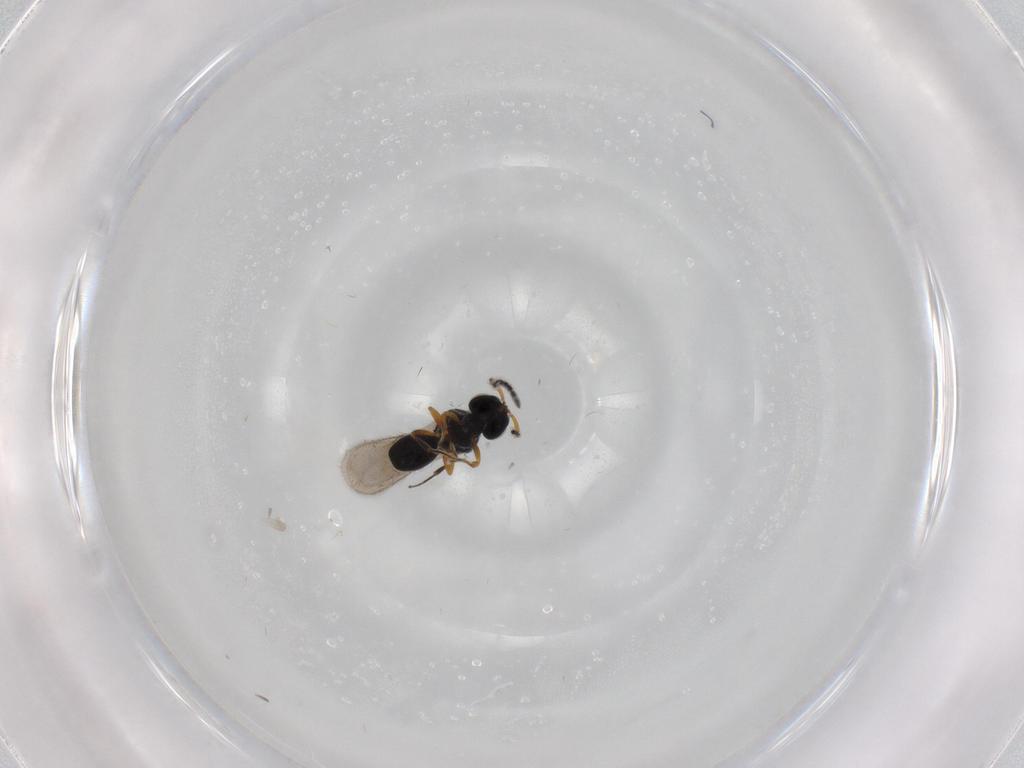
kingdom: Animalia
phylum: Arthropoda
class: Insecta
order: Hymenoptera
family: Scelionidae
